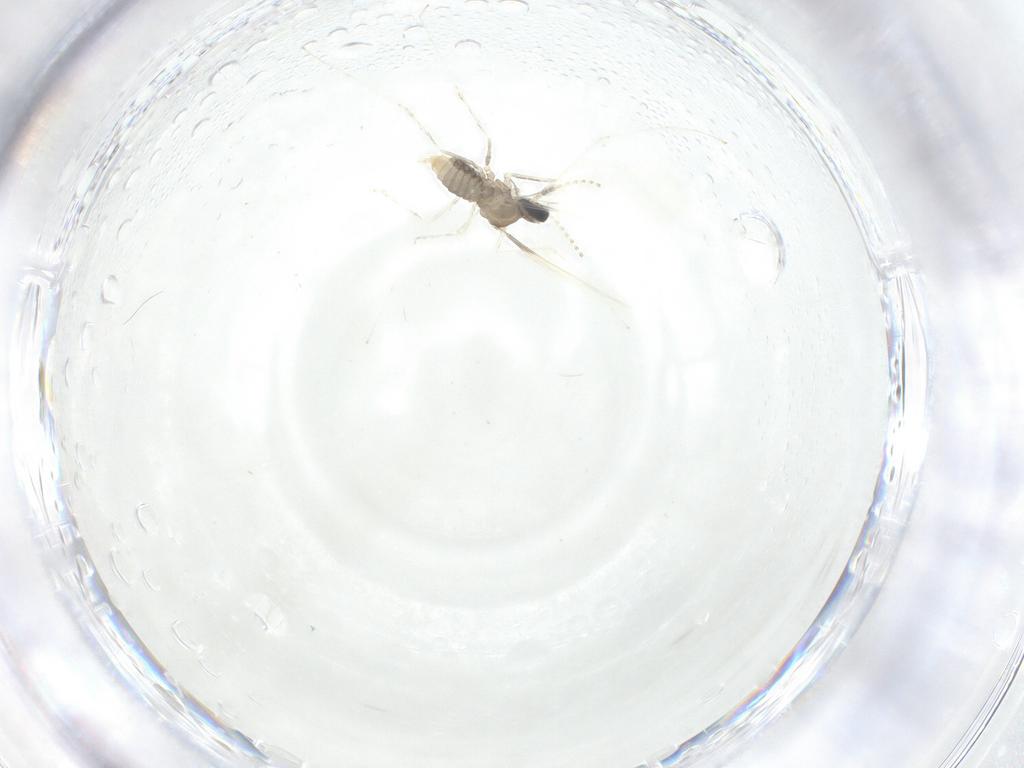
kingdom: Animalia
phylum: Arthropoda
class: Insecta
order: Diptera
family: Cecidomyiidae
